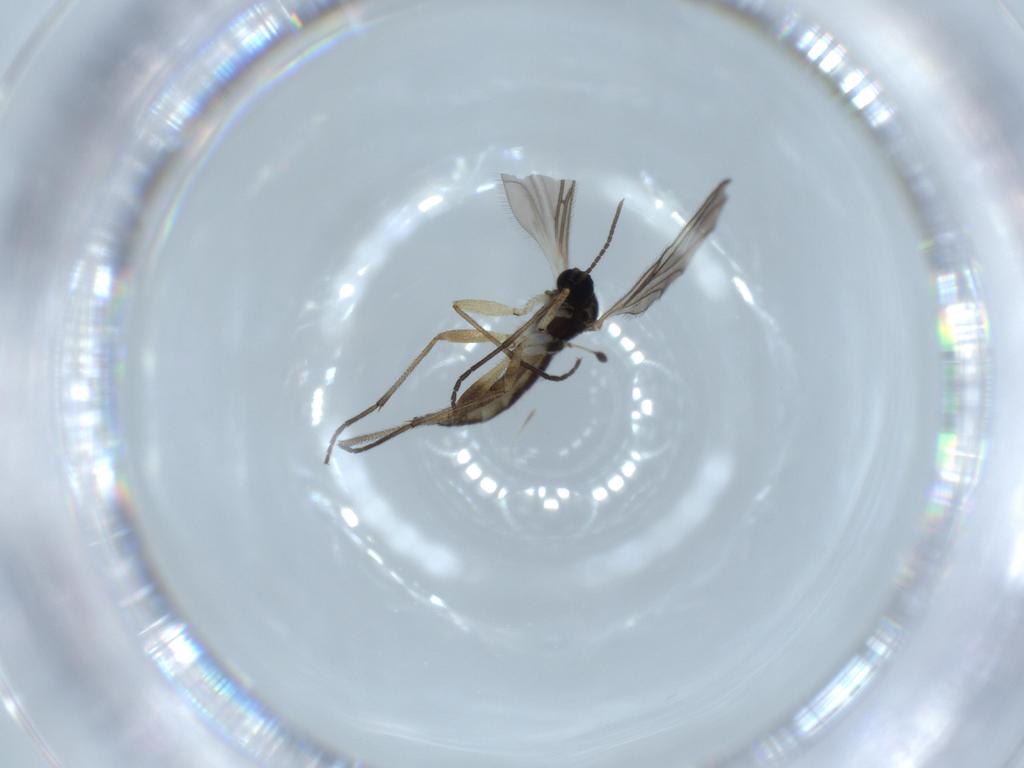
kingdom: Animalia
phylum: Arthropoda
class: Insecta
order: Diptera
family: Sciaridae
